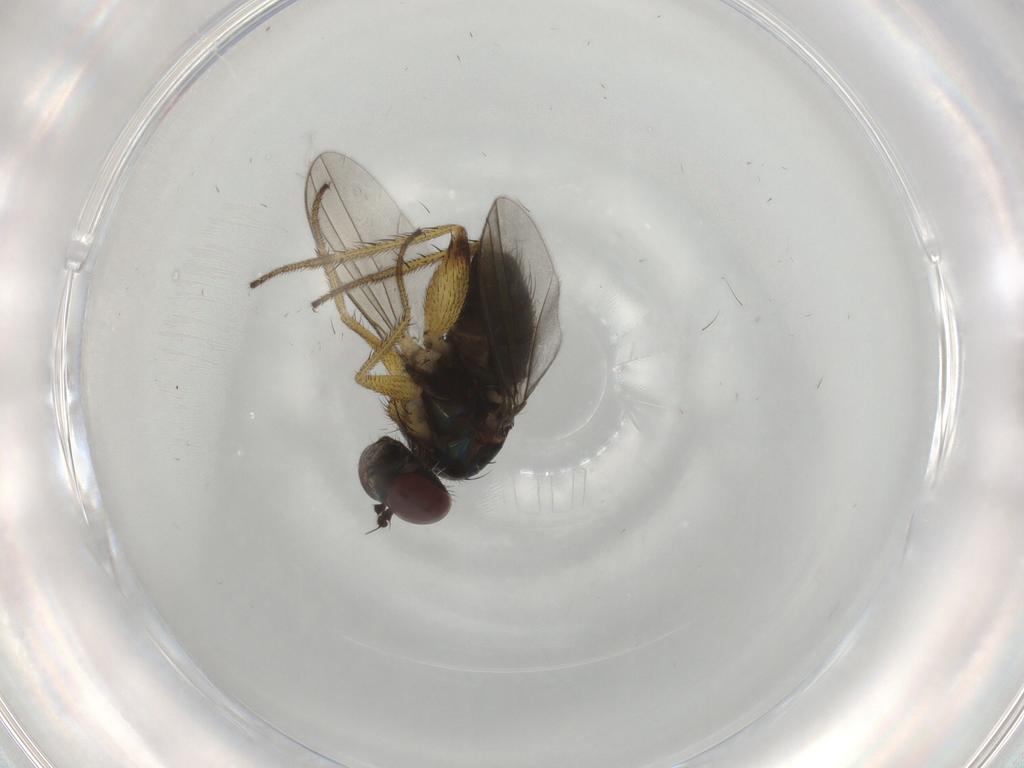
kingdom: Animalia
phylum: Arthropoda
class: Insecta
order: Diptera
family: Dolichopodidae
